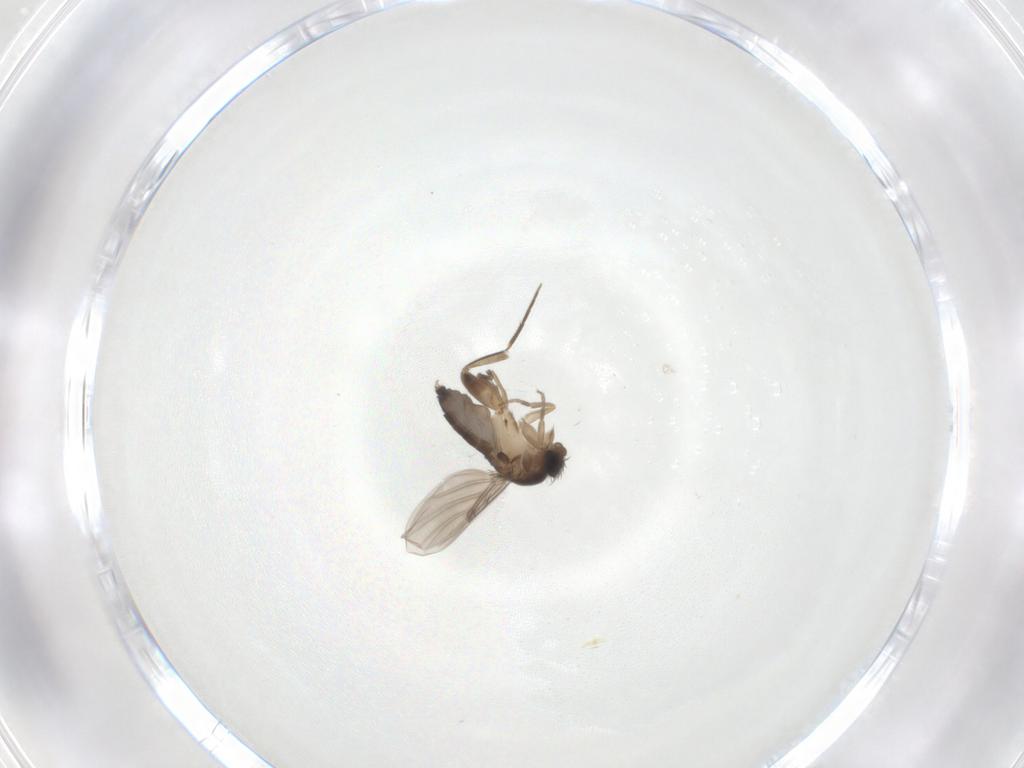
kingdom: Animalia
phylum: Arthropoda
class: Insecta
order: Diptera
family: Phoridae
